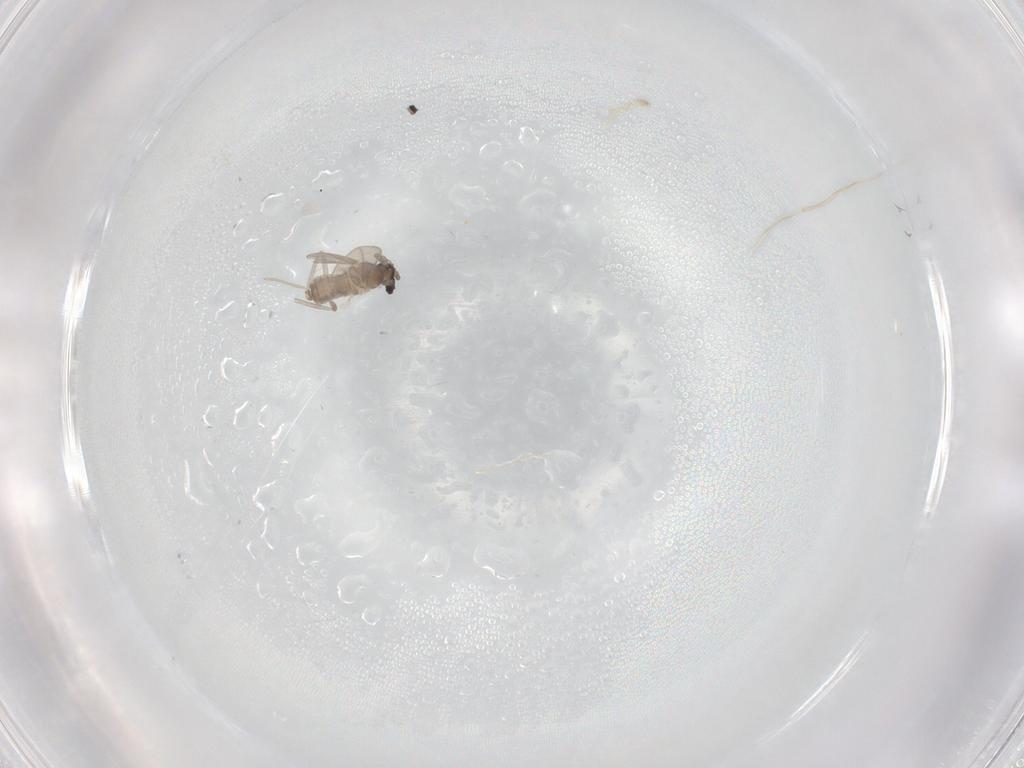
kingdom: Animalia
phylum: Arthropoda
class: Insecta
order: Diptera
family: Cecidomyiidae
